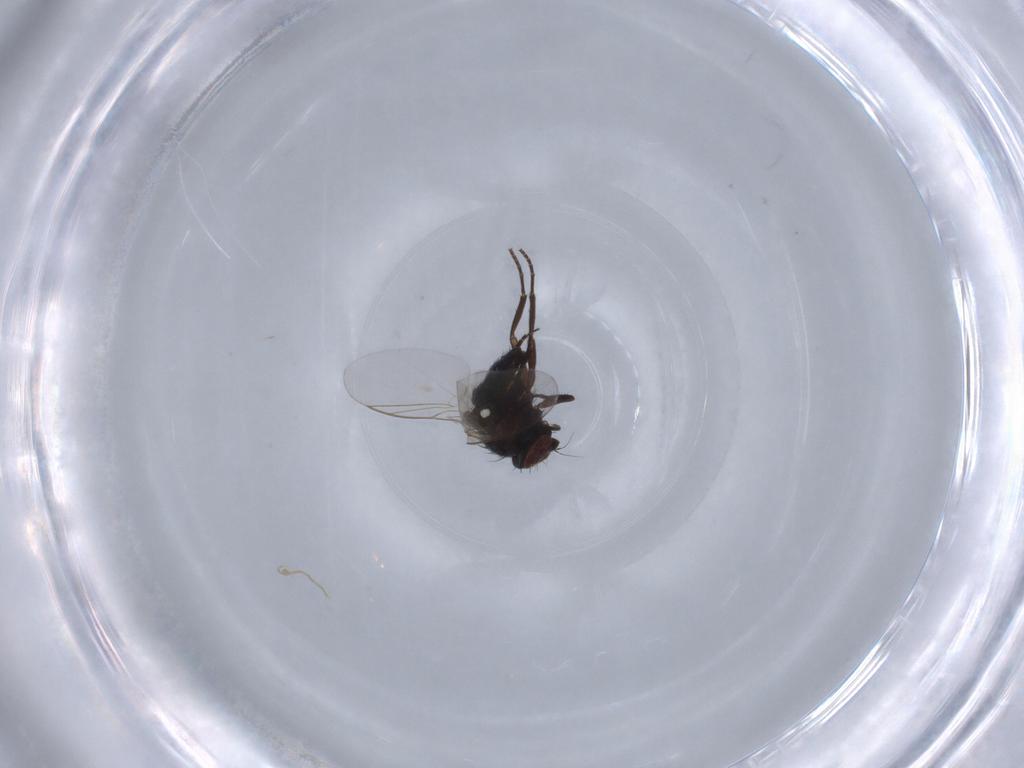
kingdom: Animalia
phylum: Arthropoda
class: Insecta
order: Diptera
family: Agromyzidae
